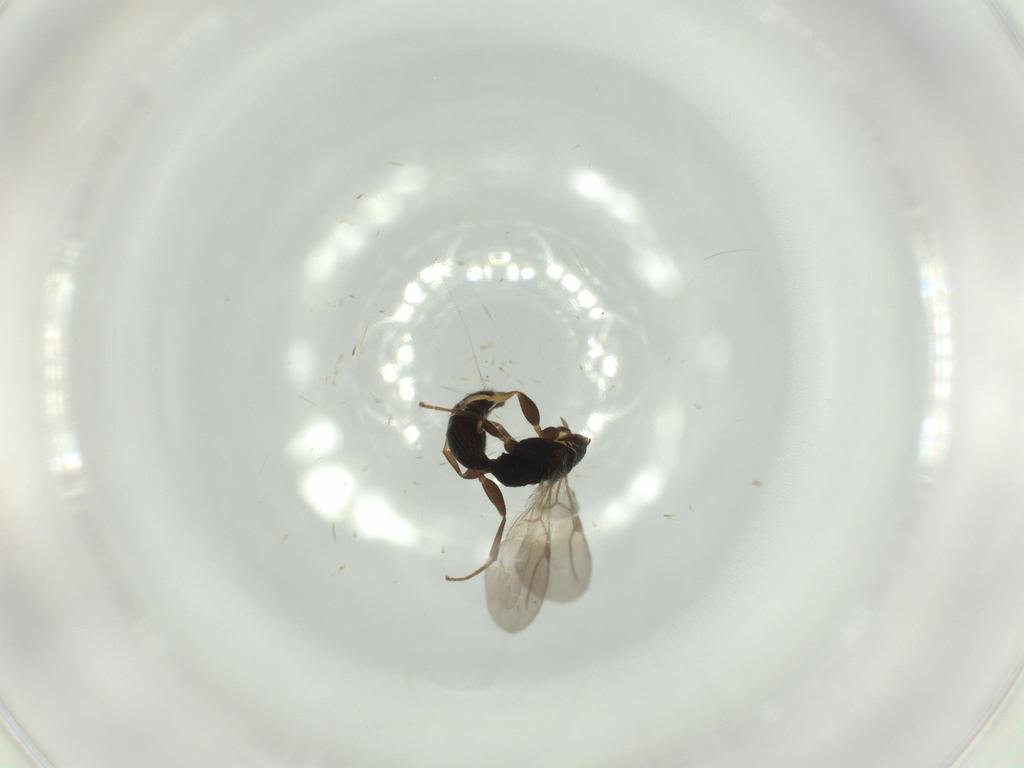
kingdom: Animalia
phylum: Arthropoda
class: Insecta
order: Hymenoptera
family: Bethylidae
